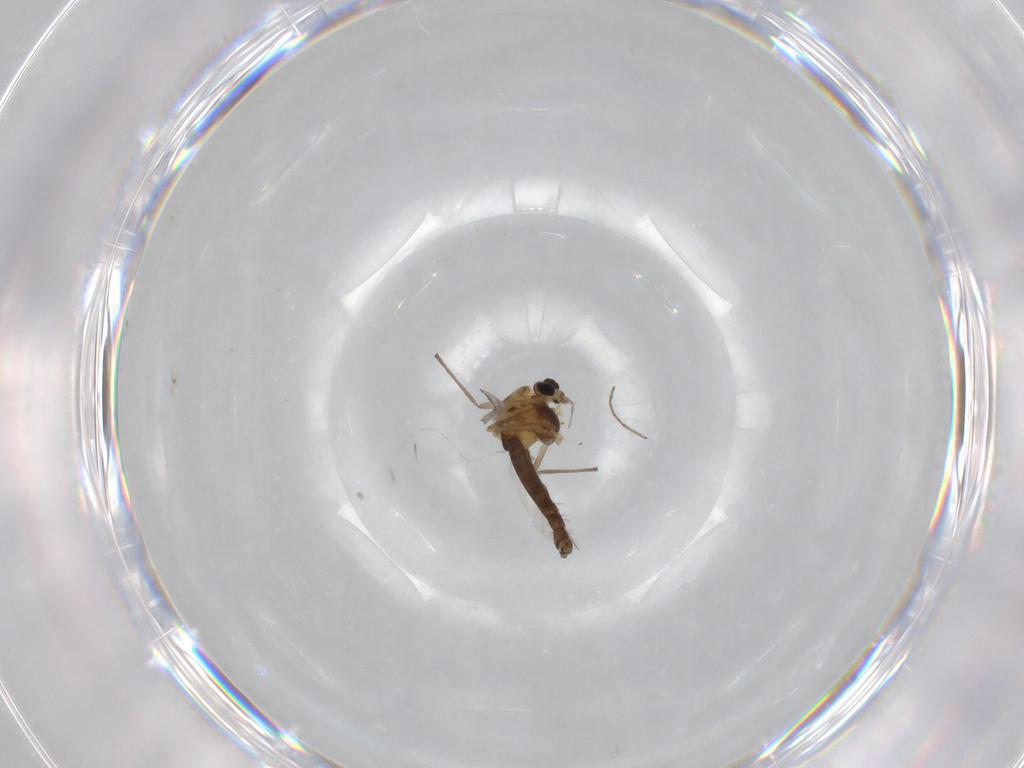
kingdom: Animalia
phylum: Arthropoda
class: Insecta
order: Diptera
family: Chironomidae
